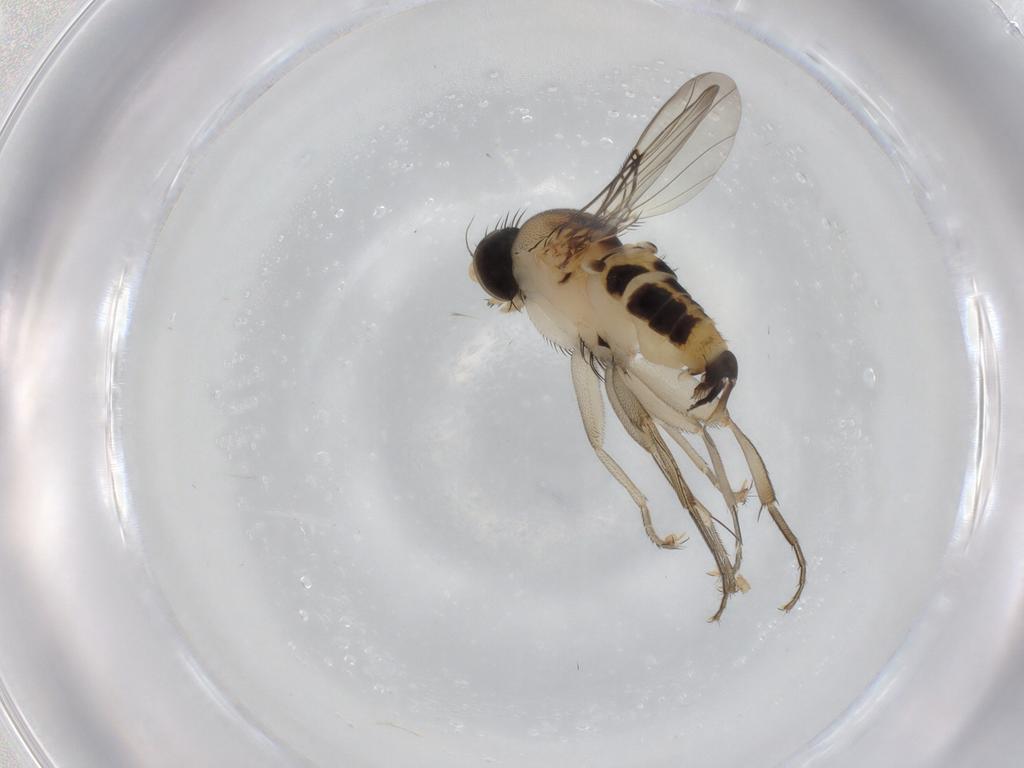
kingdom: Animalia
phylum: Arthropoda
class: Insecta
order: Diptera
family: Phoridae
